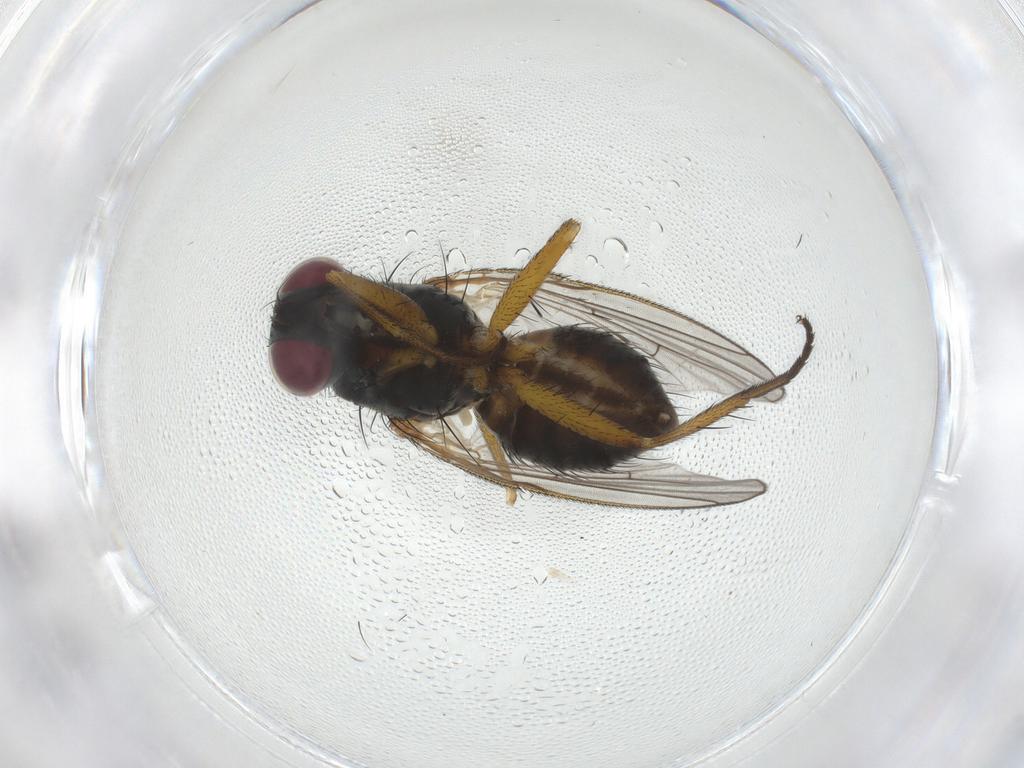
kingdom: Animalia
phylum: Arthropoda
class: Insecta
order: Diptera
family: Muscidae
